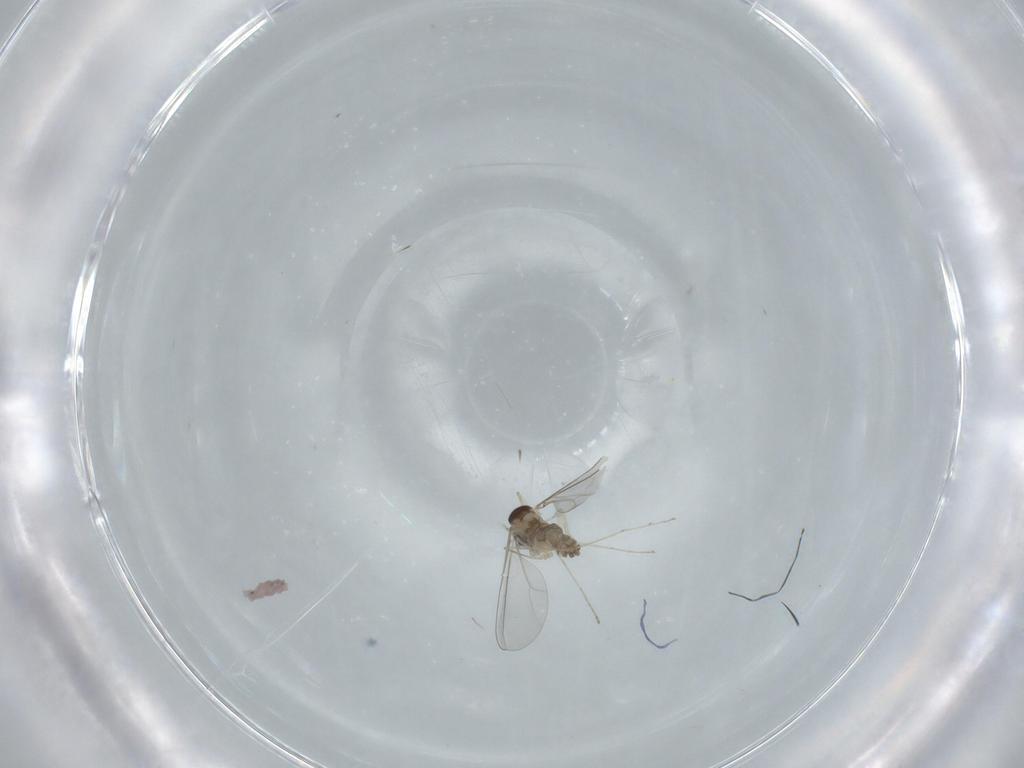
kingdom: Animalia
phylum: Arthropoda
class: Insecta
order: Diptera
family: Cecidomyiidae
